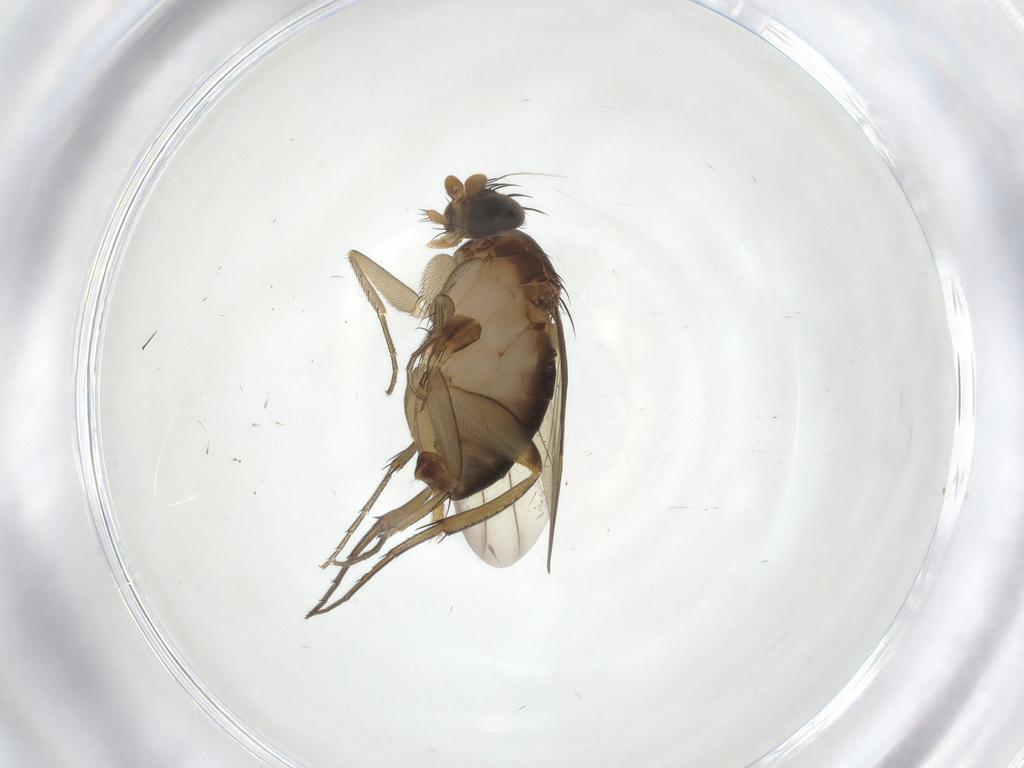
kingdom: Animalia
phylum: Arthropoda
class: Insecta
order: Diptera
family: Phoridae
